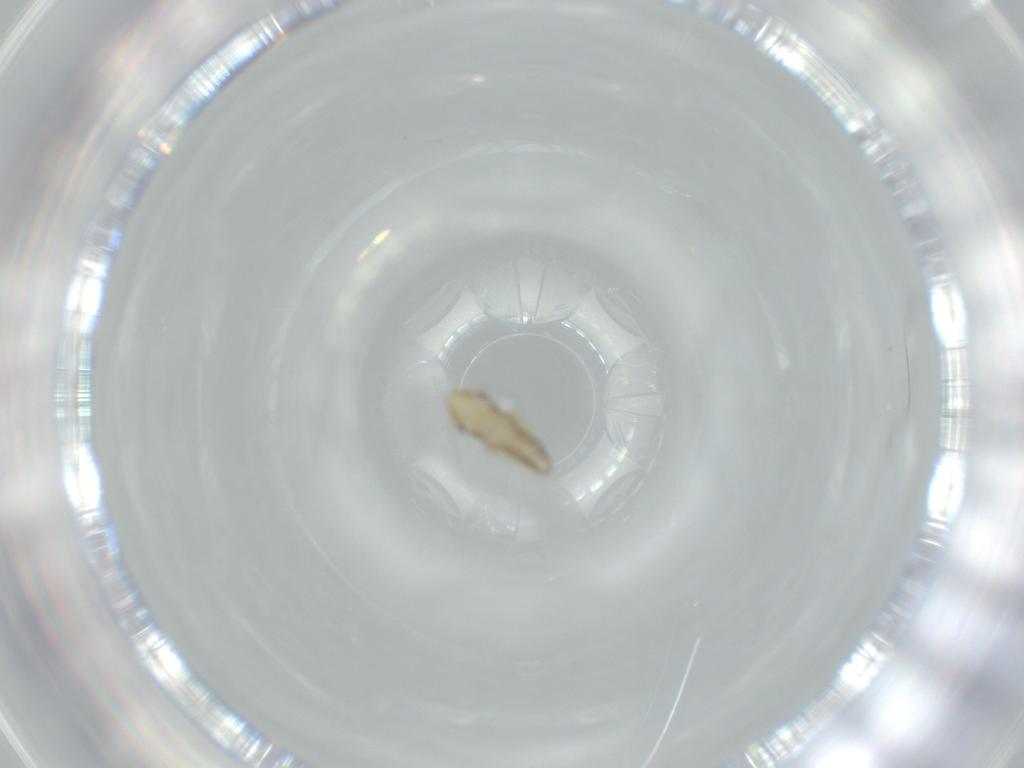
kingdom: Animalia
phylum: Arthropoda
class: Insecta
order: Hemiptera
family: Cicadellidae
